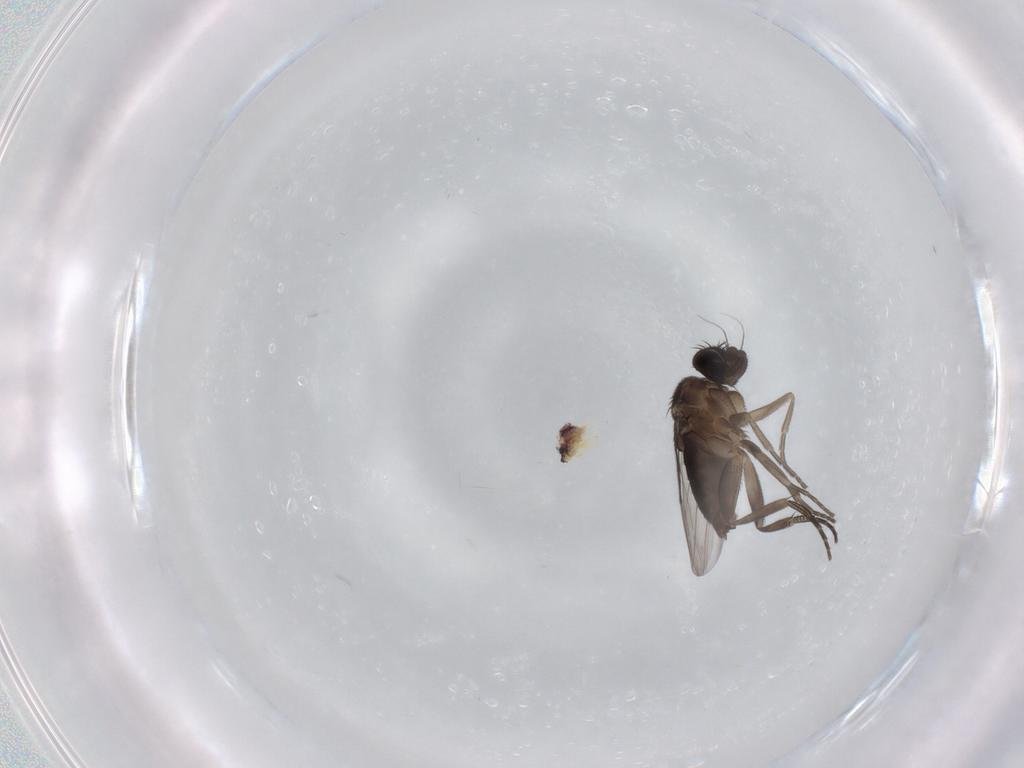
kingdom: Animalia
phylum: Arthropoda
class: Insecta
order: Diptera
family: Phoridae
